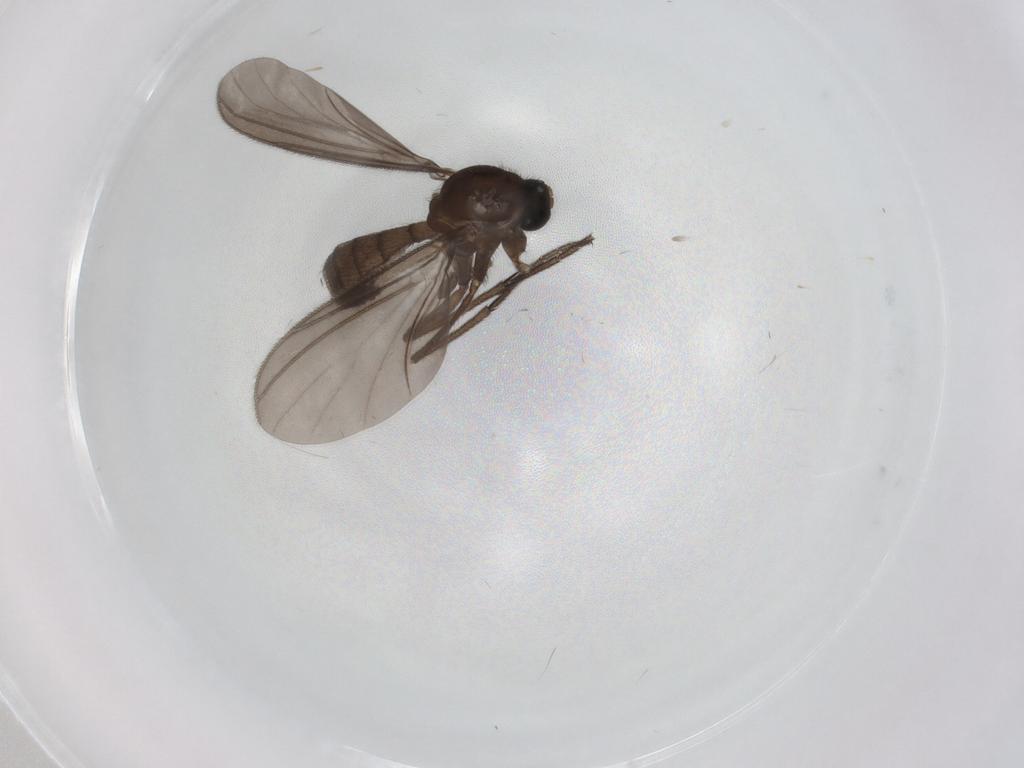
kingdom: Animalia
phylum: Arthropoda
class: Insecta
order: Diptera
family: Mycetophilidae
